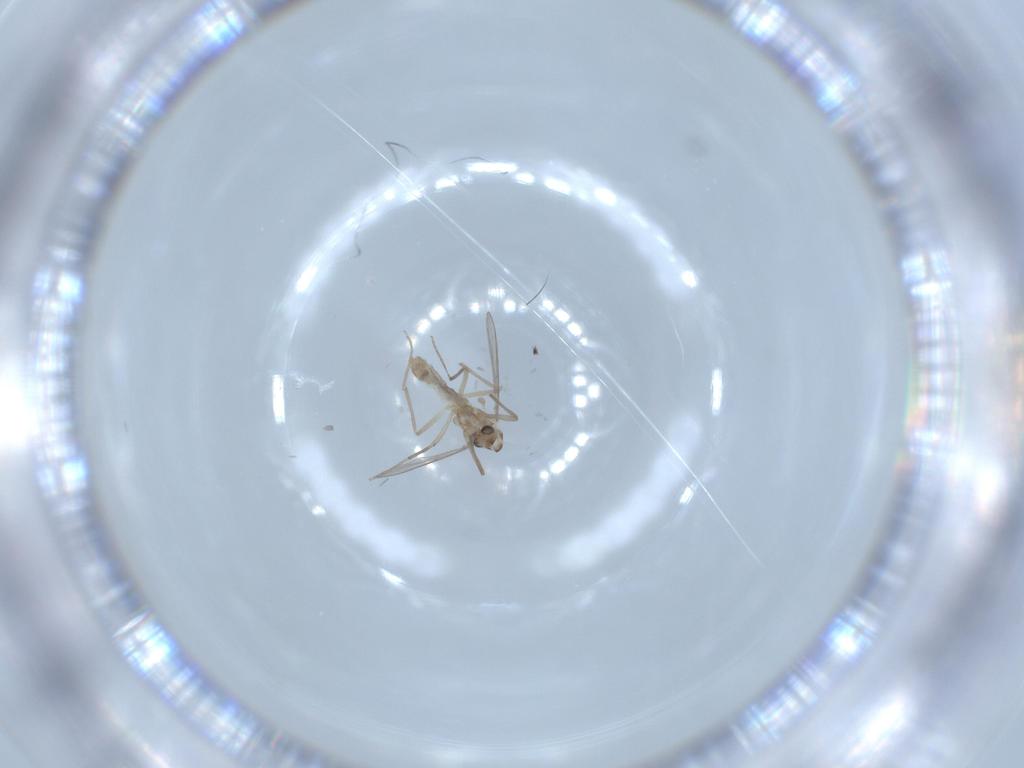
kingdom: Animalia
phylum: Arthropoda
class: Insecta
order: Diptera
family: Chironomidae
